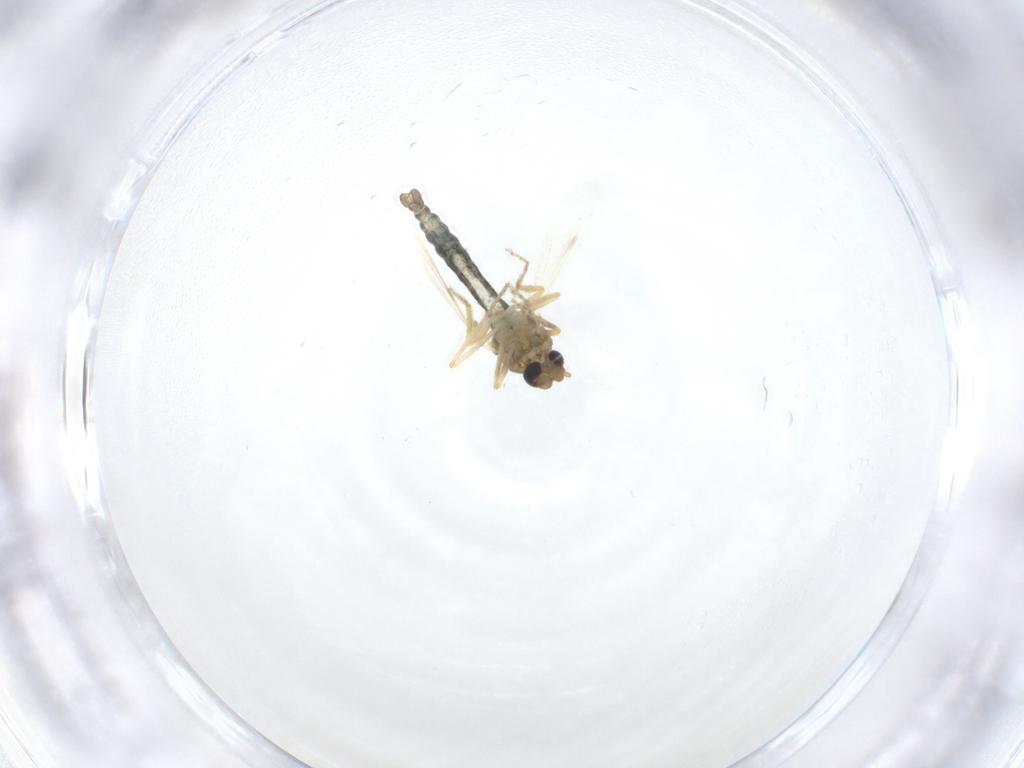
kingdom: Animalia
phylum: Arthropoda
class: Insecta
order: Diptera
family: Ceratopogonidae
